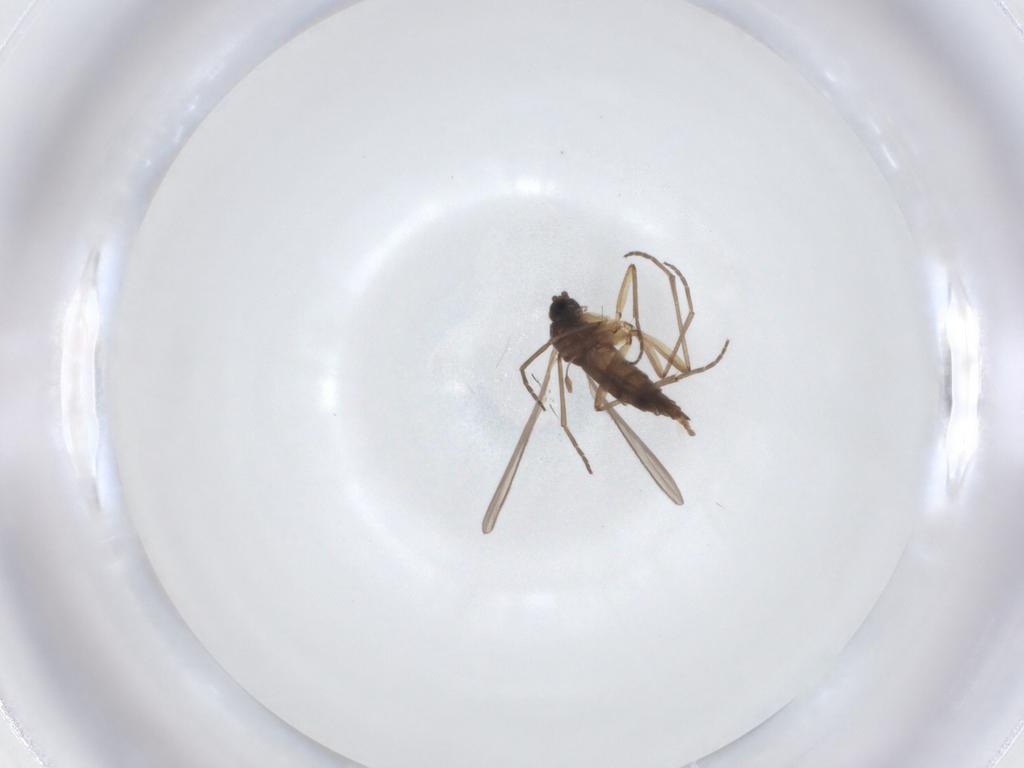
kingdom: Animalia
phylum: Arthropoda
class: Insecta
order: Diptera
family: Sciaridae
